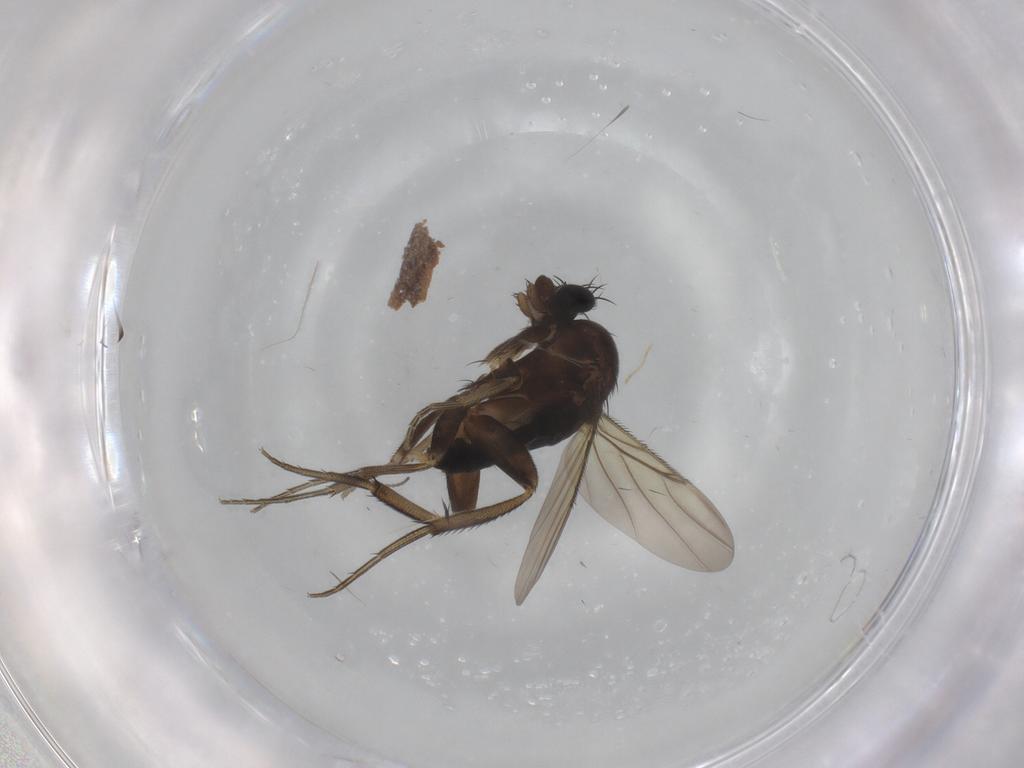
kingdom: Animalia
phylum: Arthropoda
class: Insecta
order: Diptera
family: Phoridae
